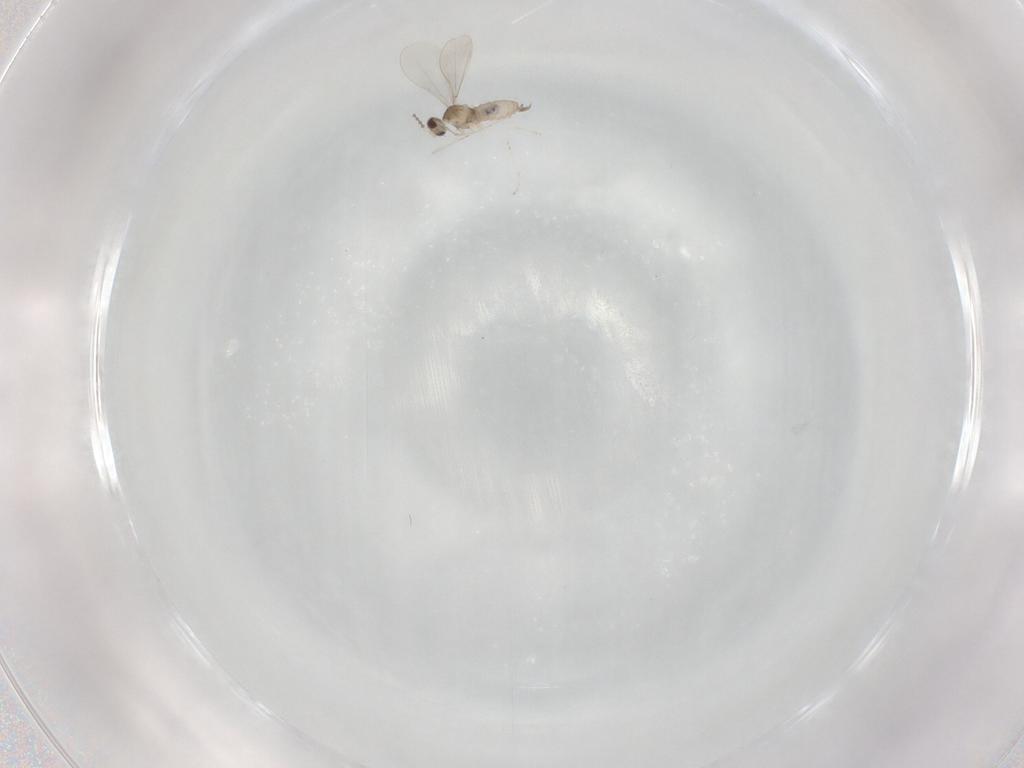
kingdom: Animalia
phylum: Arthropoda
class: Insecta
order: Diptera
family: Cecidomyiidae
